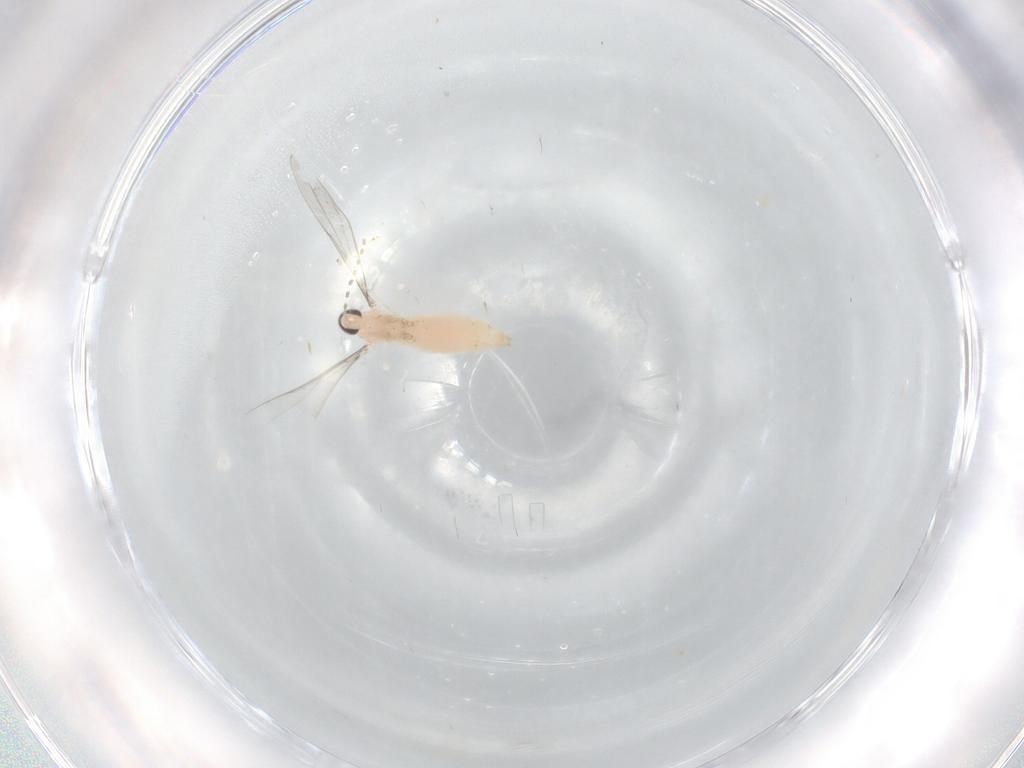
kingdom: Animalia
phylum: Arthropoda
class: Insecta
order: Diptera
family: Cecidomyiidae
